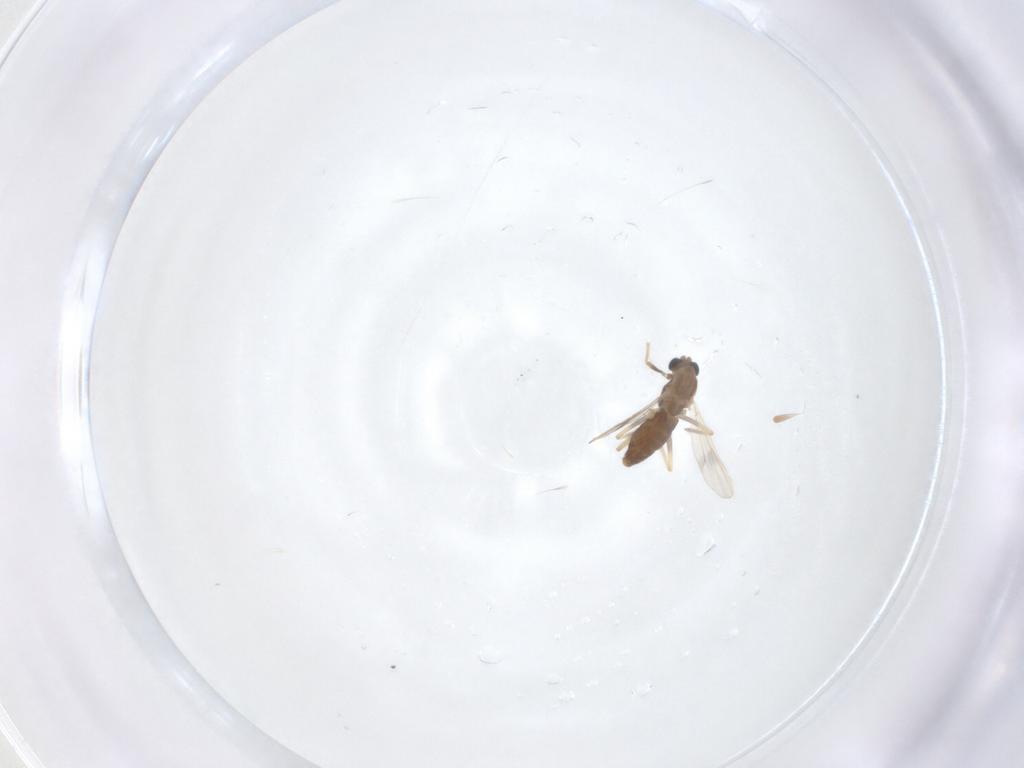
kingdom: Animalia
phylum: Arthropoda
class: Insecta
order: Diptera
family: Chironomidae
